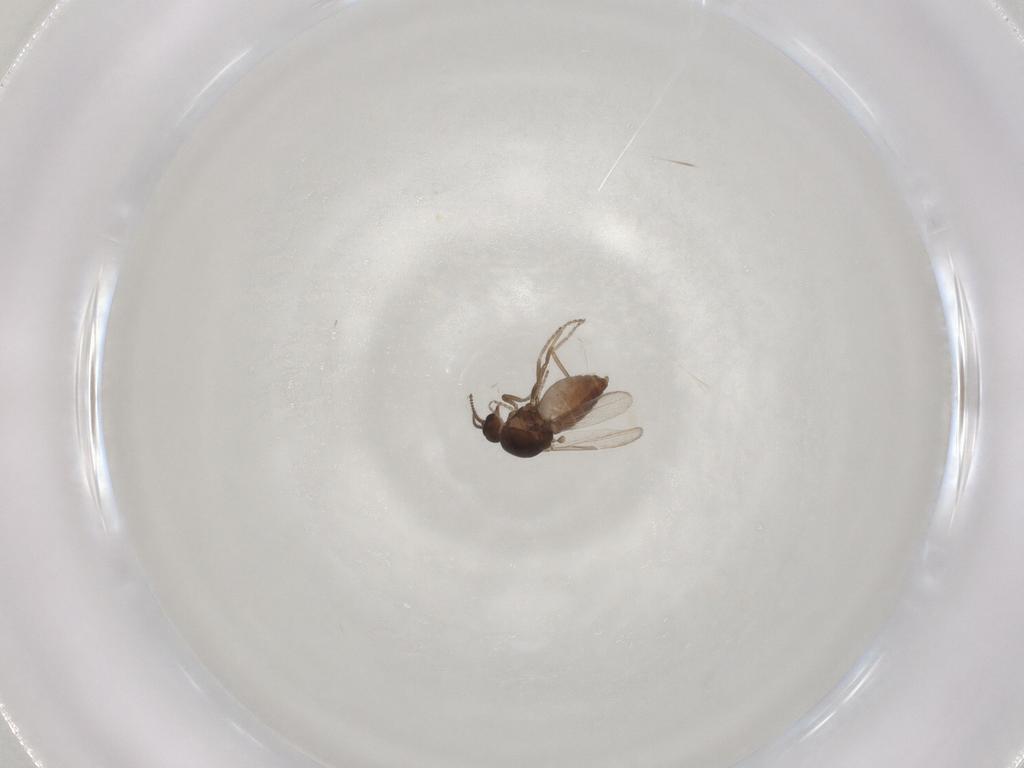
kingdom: Animalia
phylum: Arthropoda
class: Insecta
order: Diptera
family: Ceratopogonidae
